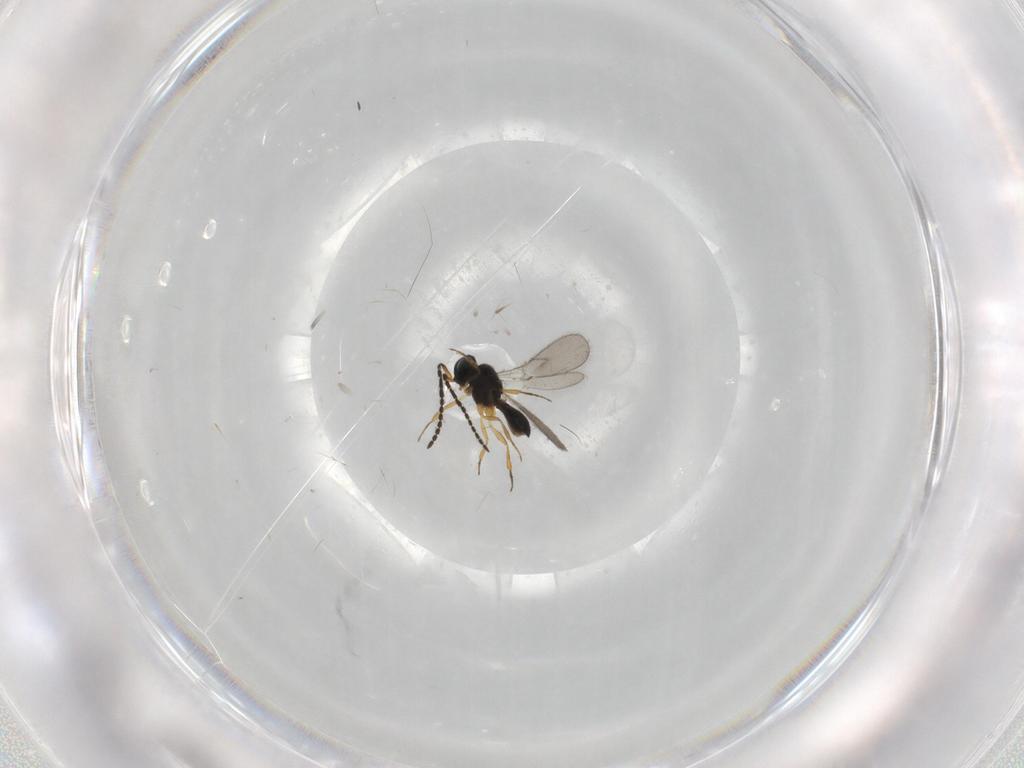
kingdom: Animalia
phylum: Arthropoda
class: Insecta
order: Hymenoptera
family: Scelionidae
